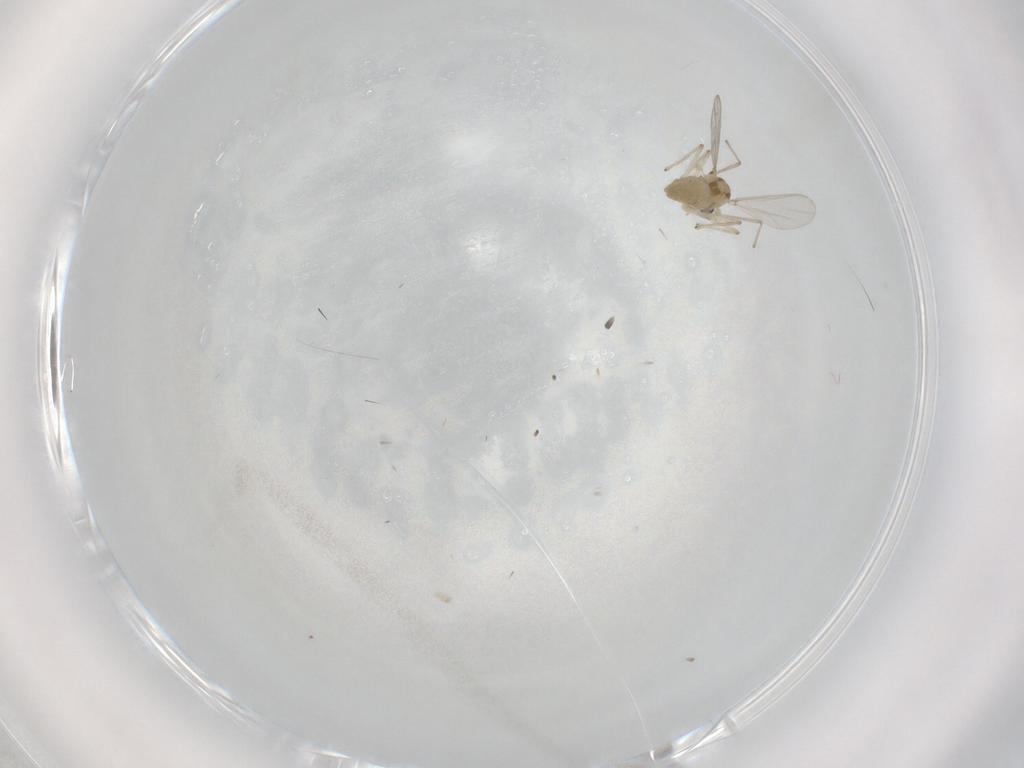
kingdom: Animalia
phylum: Arthropoda
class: Insecta
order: Diptera
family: Chironomidae
